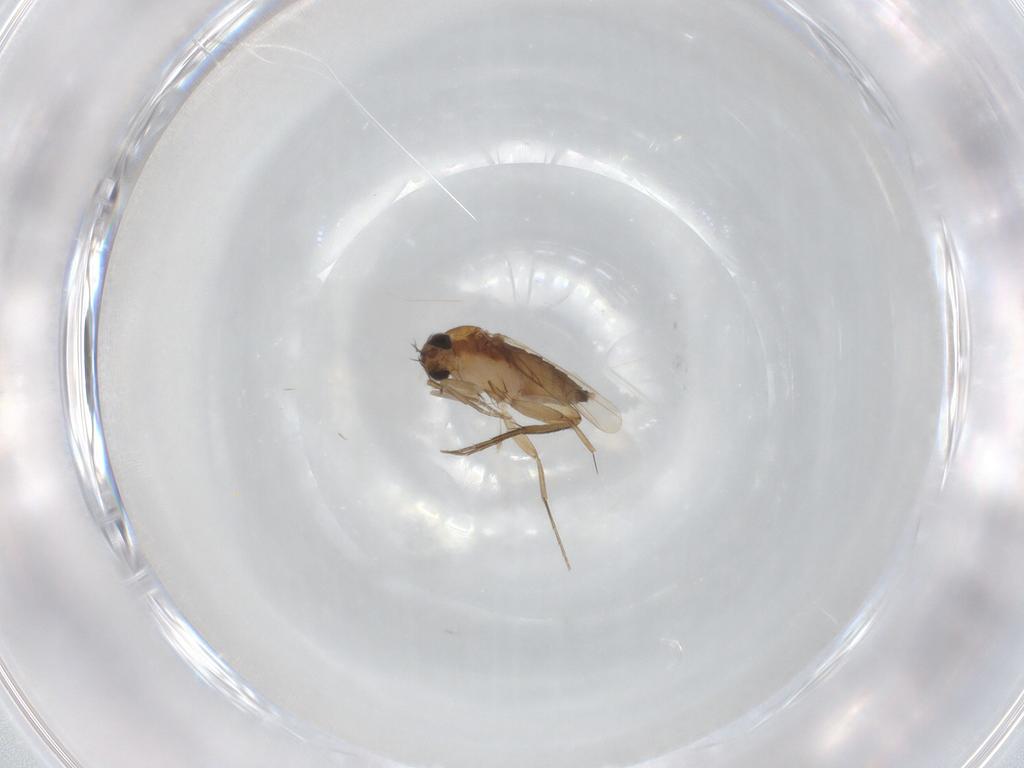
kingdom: Animalia
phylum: Arthropoda
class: Insecta
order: Diptera
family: Phoridae
